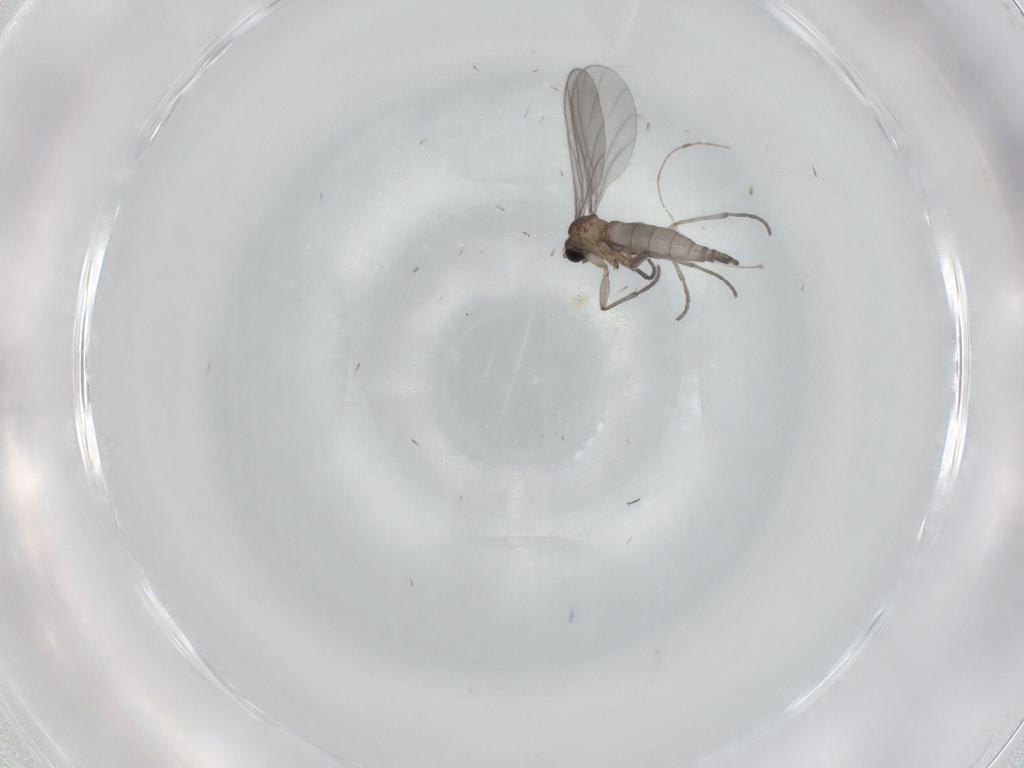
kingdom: Animalia
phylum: Arthropoda
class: Insecta
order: Diptera
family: Sciaridae
